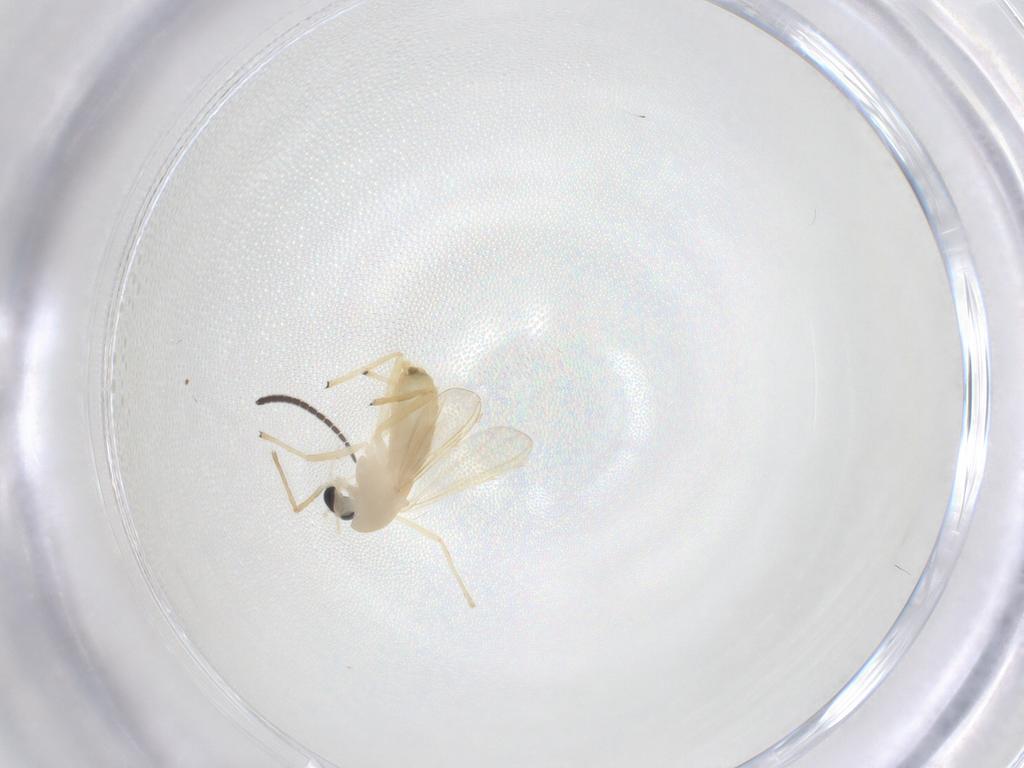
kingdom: Animalia
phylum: Arthropoda
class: Insecta
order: Diptera
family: Chironomidae
